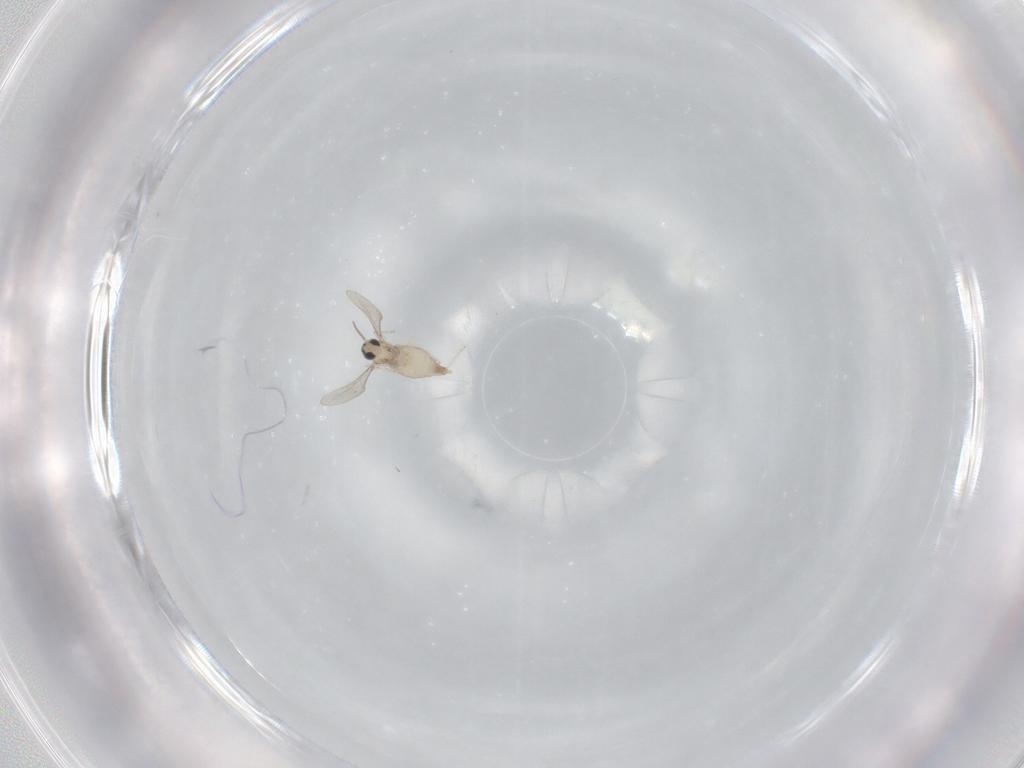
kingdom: Animalia
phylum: Arthropoda
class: Insecta
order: Diptera
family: Cecidomyiidae
